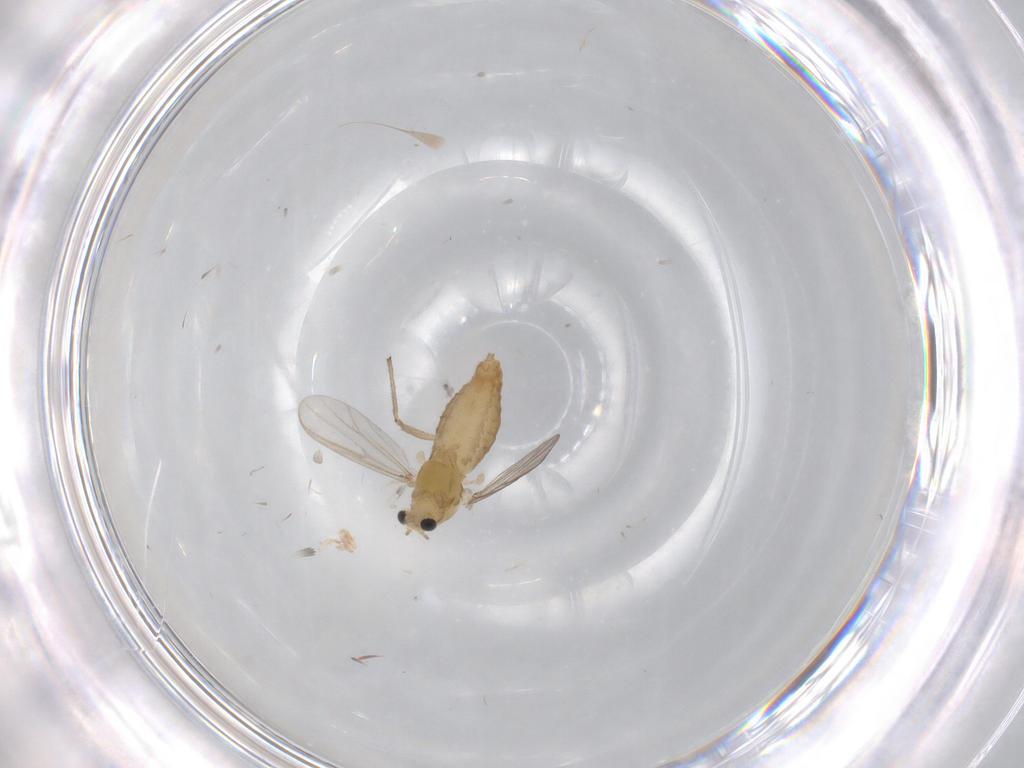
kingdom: Animalia
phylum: Arthropoda
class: Insecta
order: Diptera
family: Chironomidae
